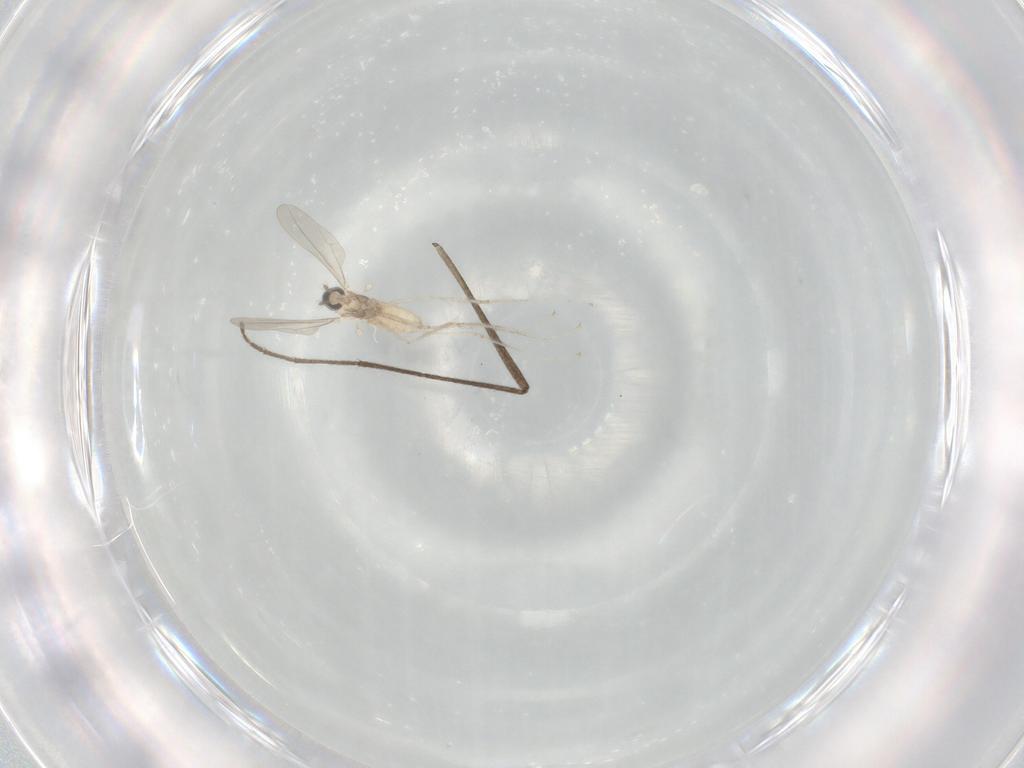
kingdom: Animalia
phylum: Arthropoda
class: Insecta
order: Diptera
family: Cecidomyiidae
